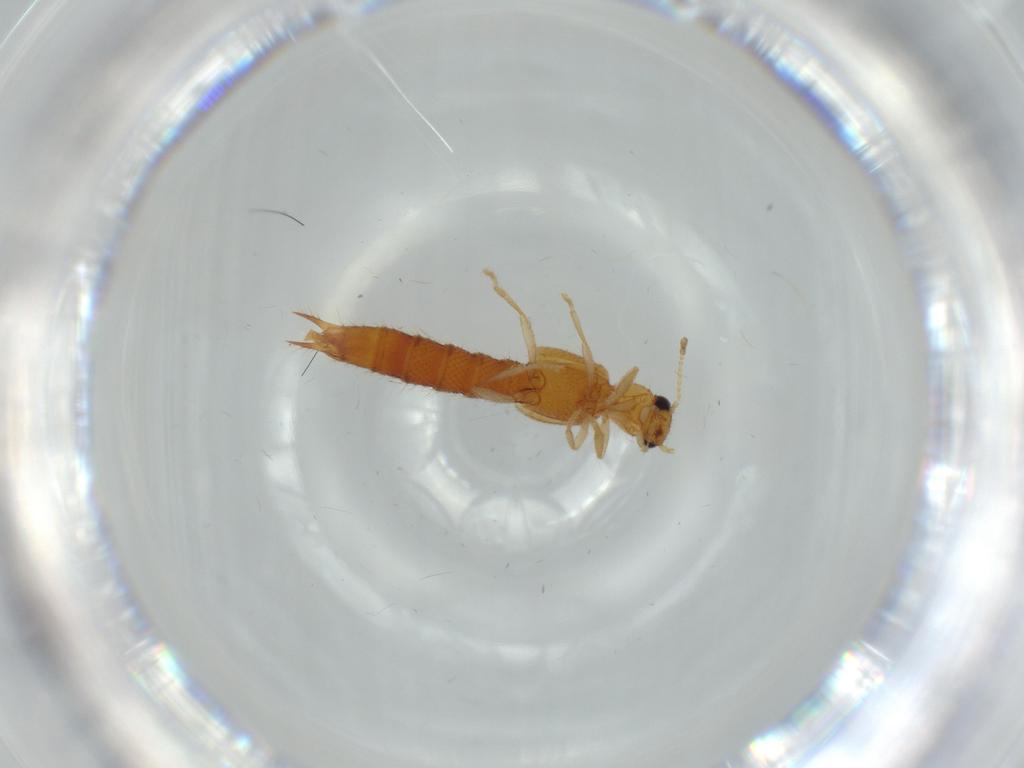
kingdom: Animalia
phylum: Arthropoda
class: Insecta
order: Coleoptera
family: Staphylinidae
